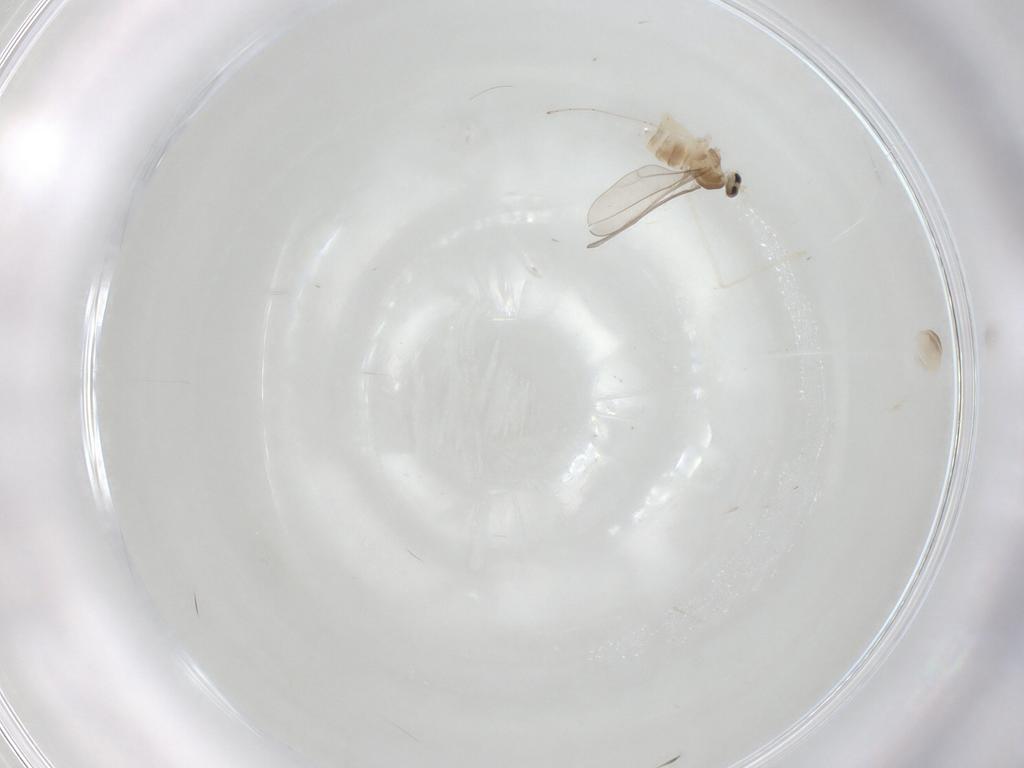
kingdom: Animalia
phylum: Arthropoda
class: Insecta
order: Diptera
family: Cecidomyiidae
